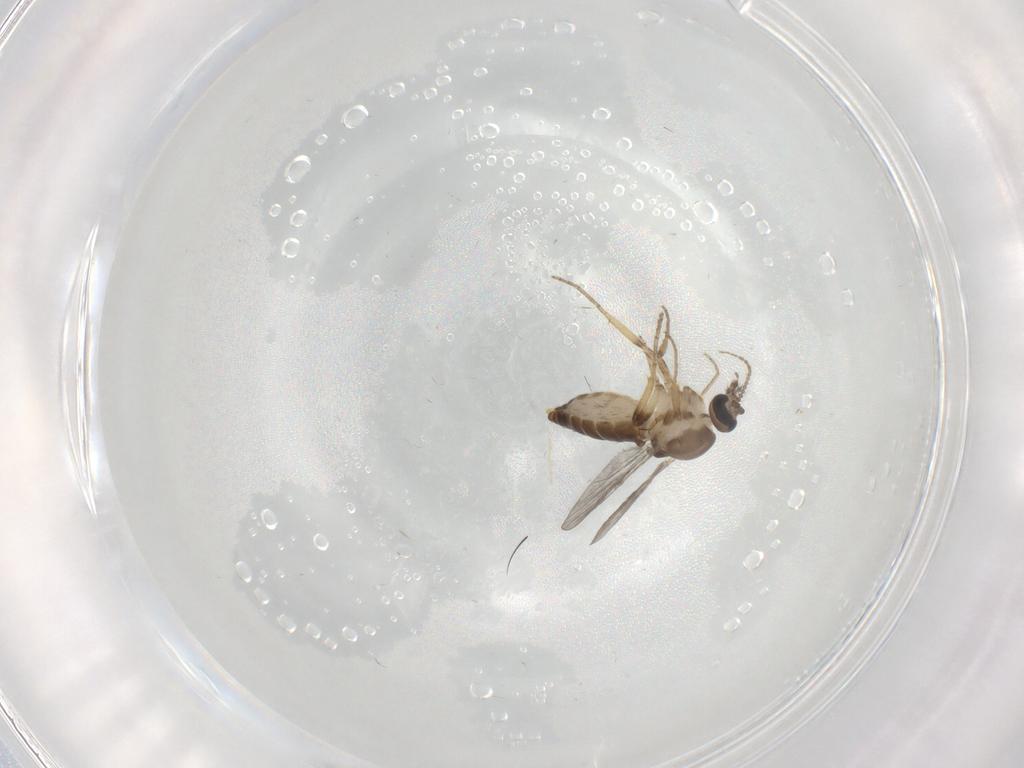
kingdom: Animalia
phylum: Arthropoda
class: Insecta
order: Diptera
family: Ceratopogonidae
